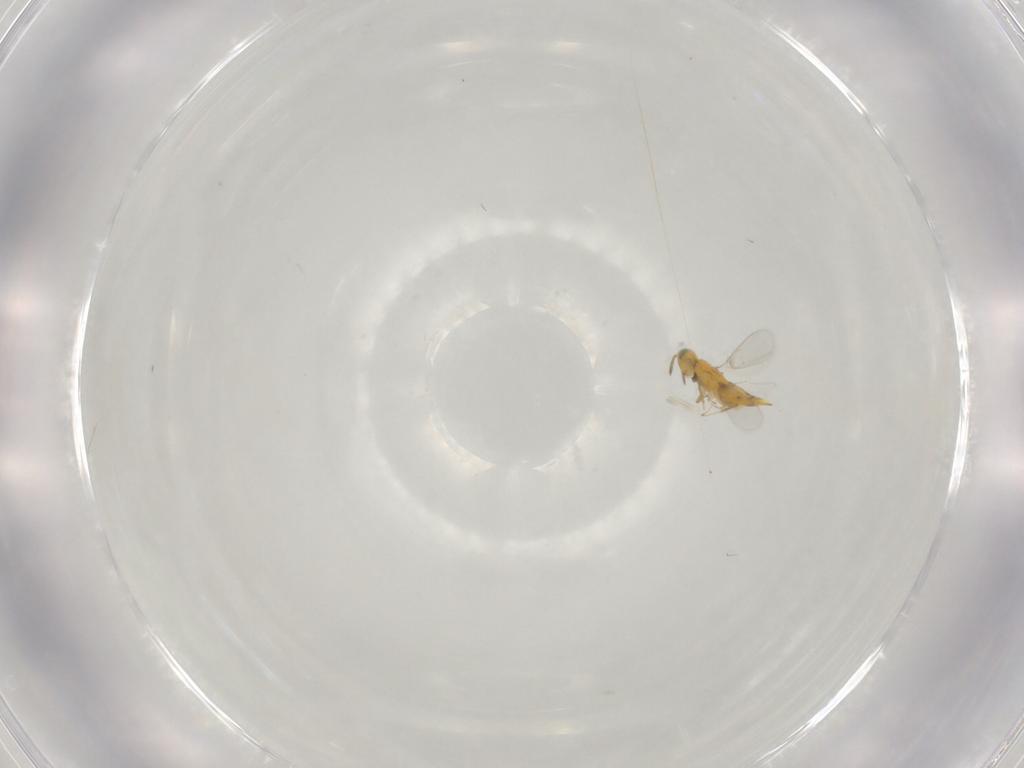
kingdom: Animalia
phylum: Arthropoda
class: Insecta
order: Hymenoptera
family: Aphelinidae
